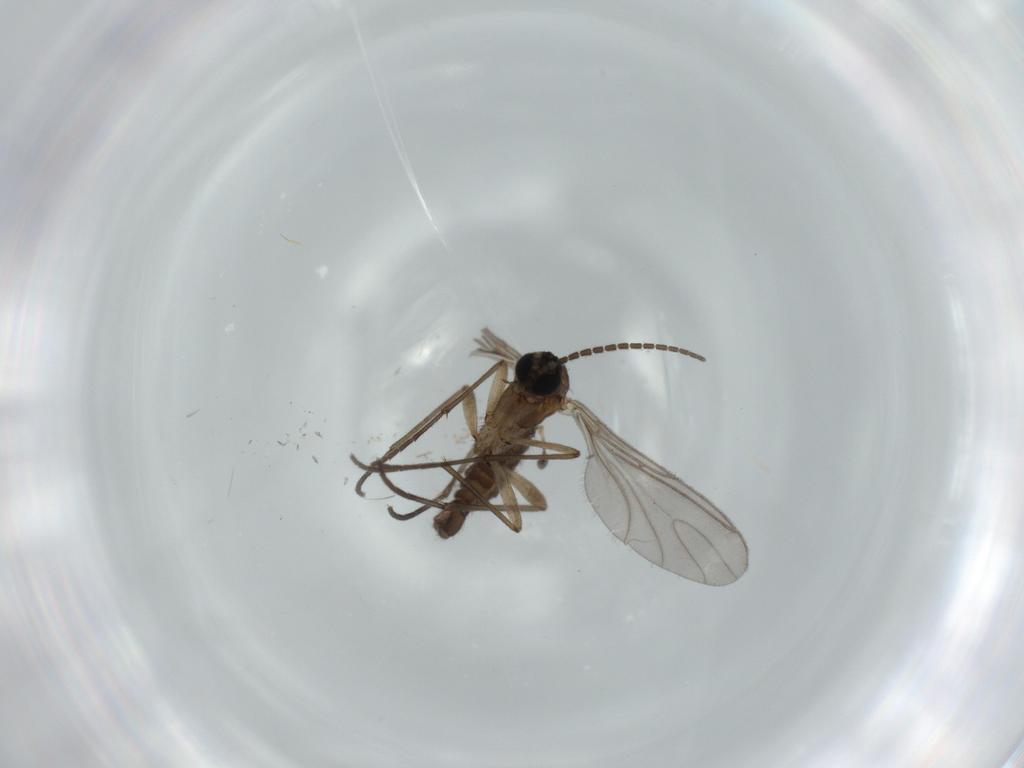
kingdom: Animalia
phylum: Arthropoda
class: Insecta
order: Diptera
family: Sciaridae
